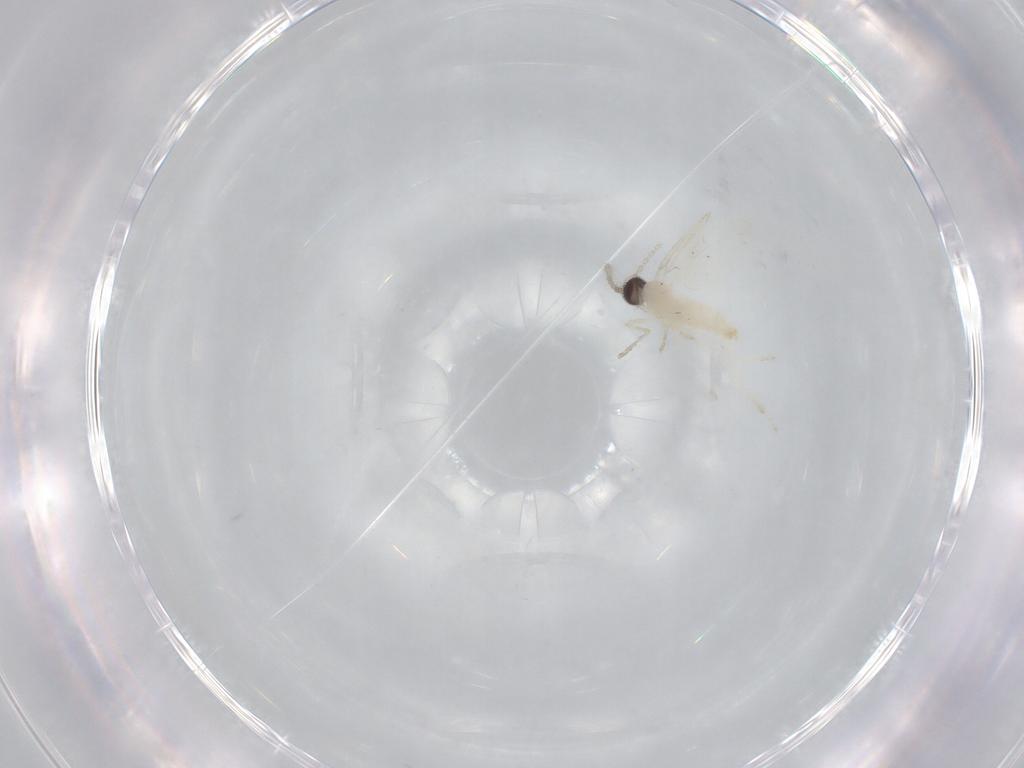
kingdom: Animalia
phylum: Arthropoda
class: Insecta
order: Diptera
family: Cecidomyiidae
